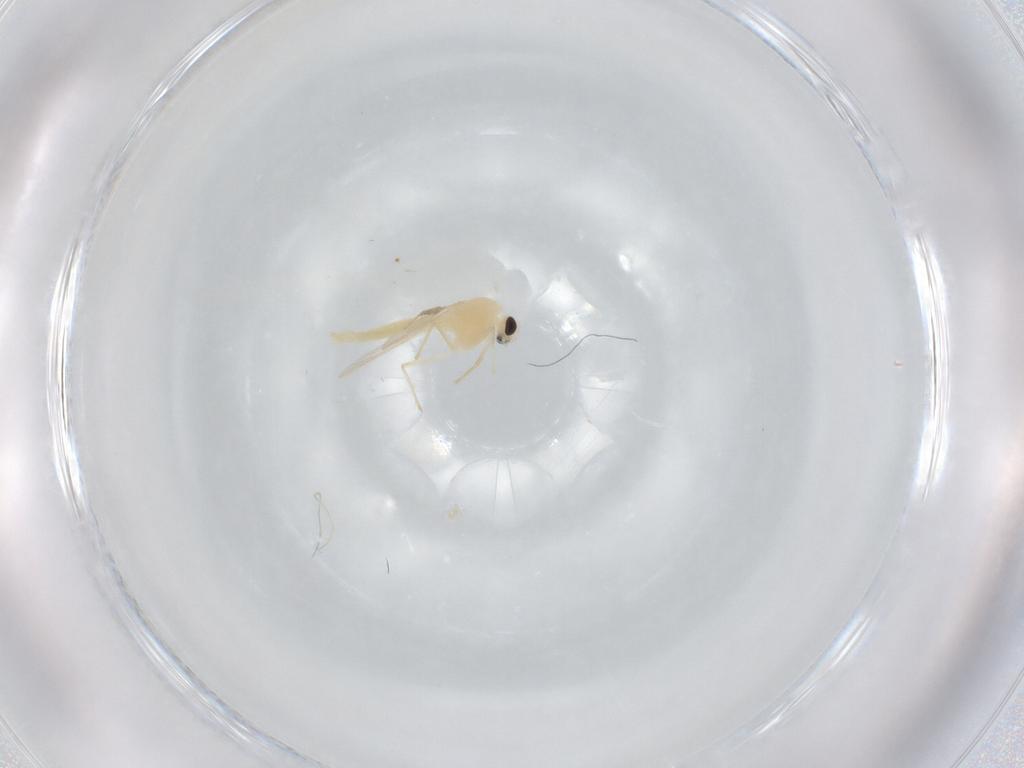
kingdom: Animalia
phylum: Arthropoda
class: Insecta
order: Diptera
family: Chironomidae
